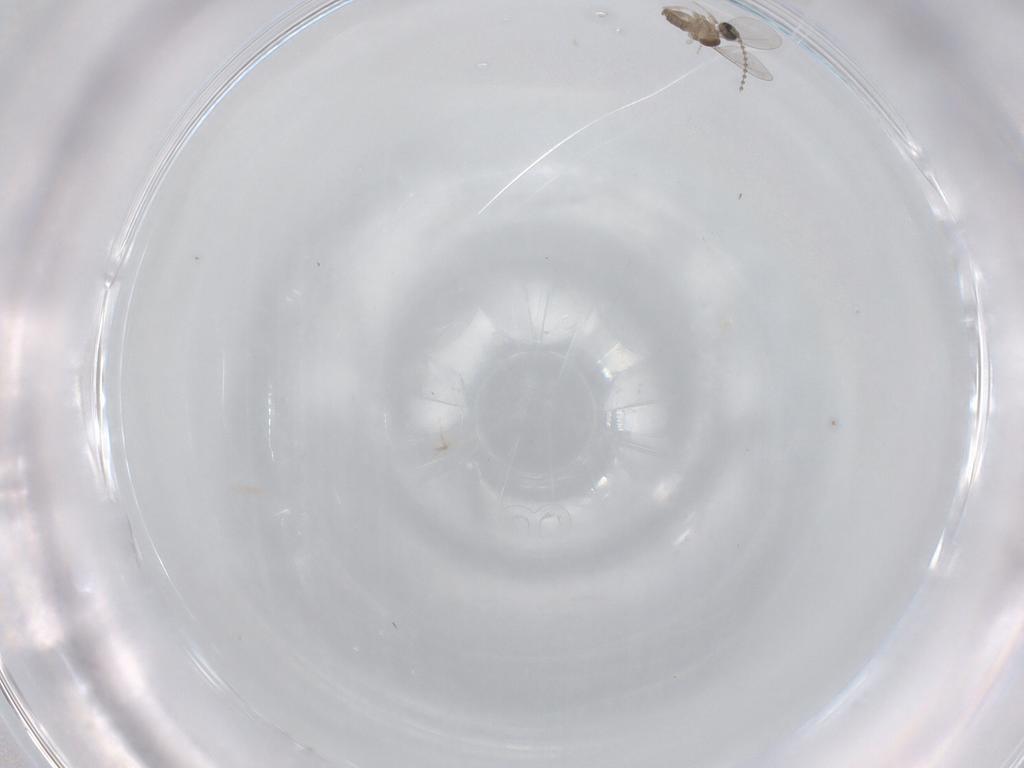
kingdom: Animalia
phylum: Arthropoda
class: Insecta
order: Diptera
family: Cecidomyiidae
